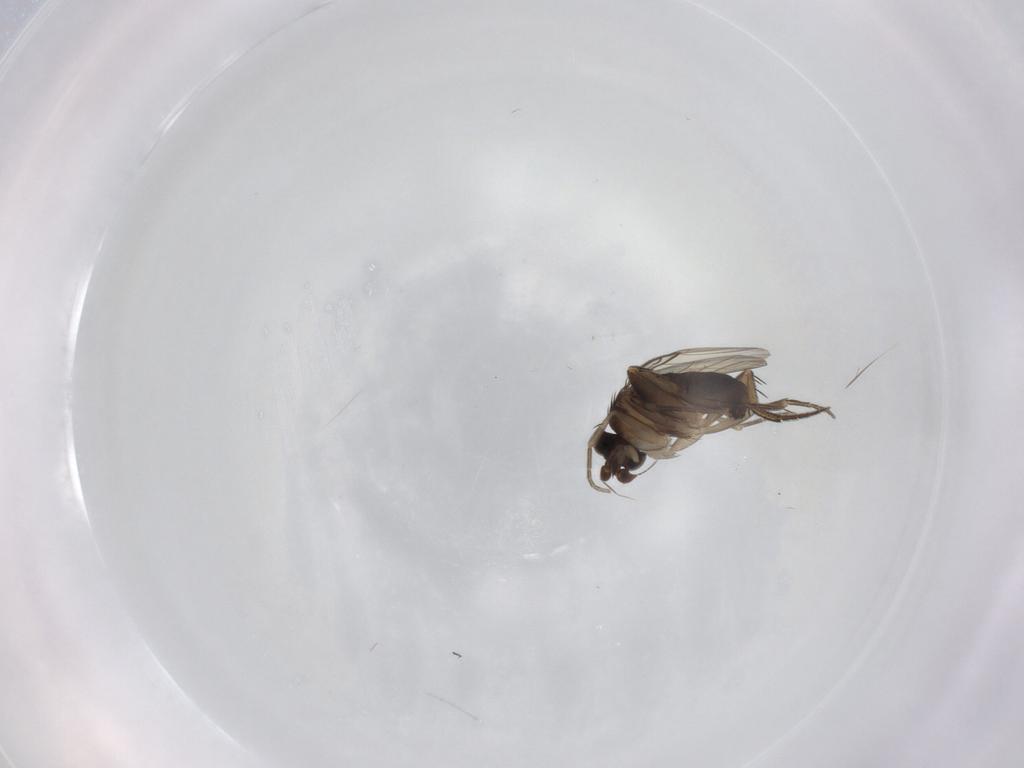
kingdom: Animalia
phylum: Arthropoda
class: Insecta
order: Diptera
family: Phoridae
